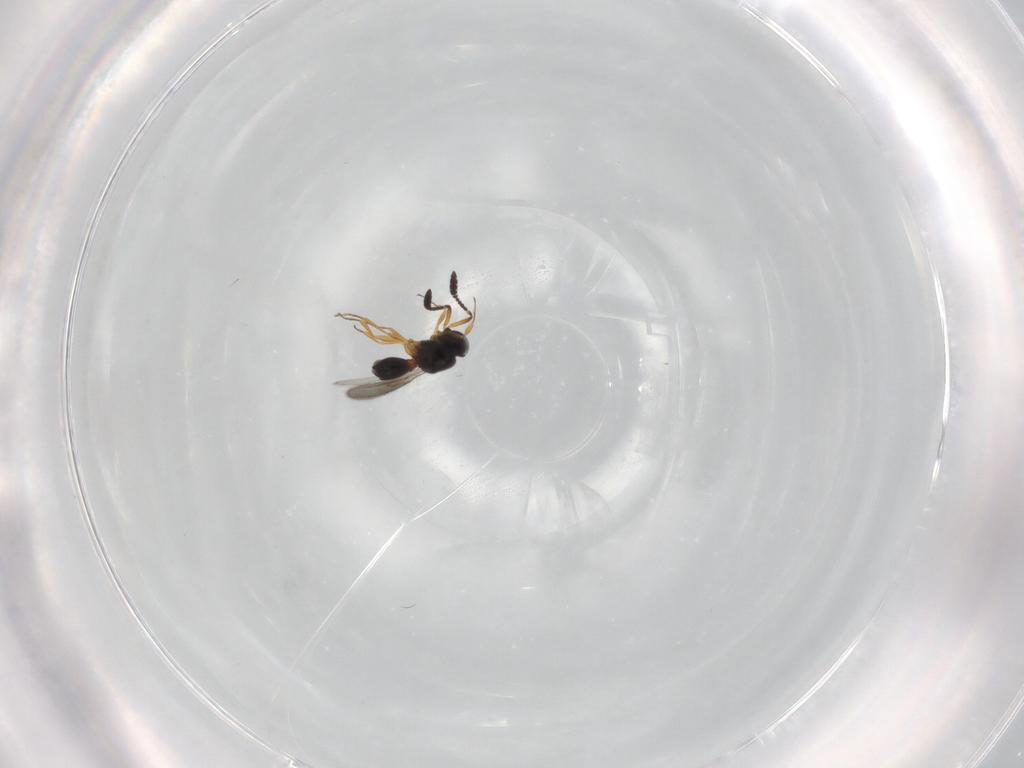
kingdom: Animalia
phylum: Arthropoda
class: Insecta
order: Hymenoptera
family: Scelionidae
